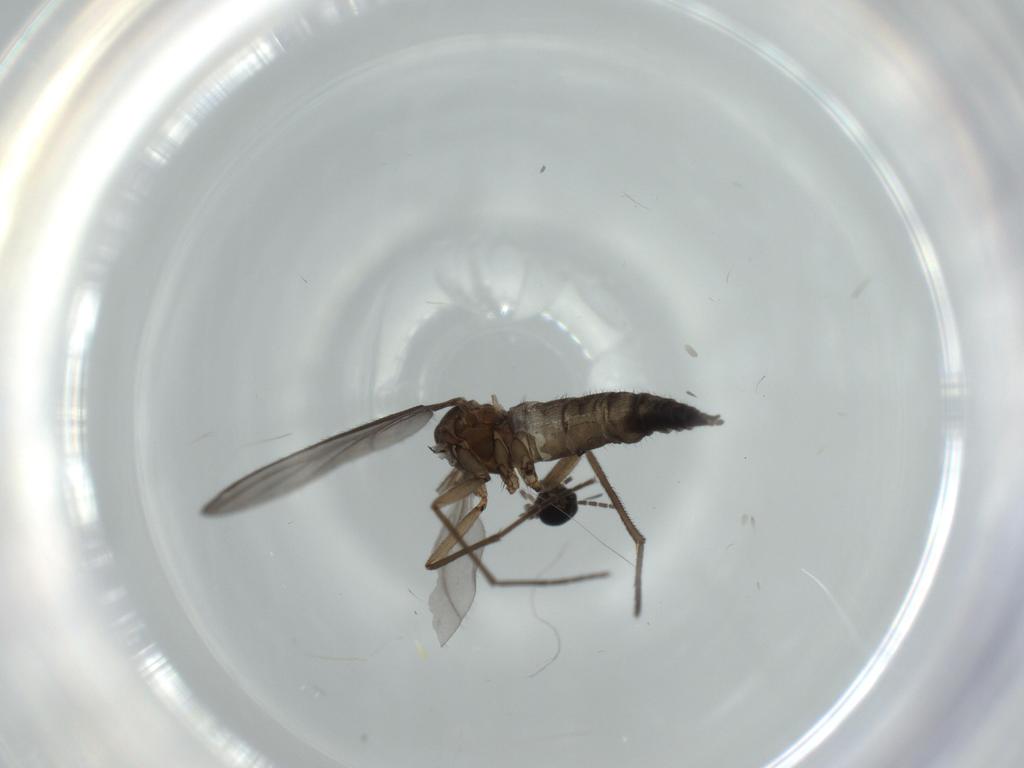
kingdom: Animalia
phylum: Arthropoda
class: Insecta
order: Diptera
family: Sciaridae
